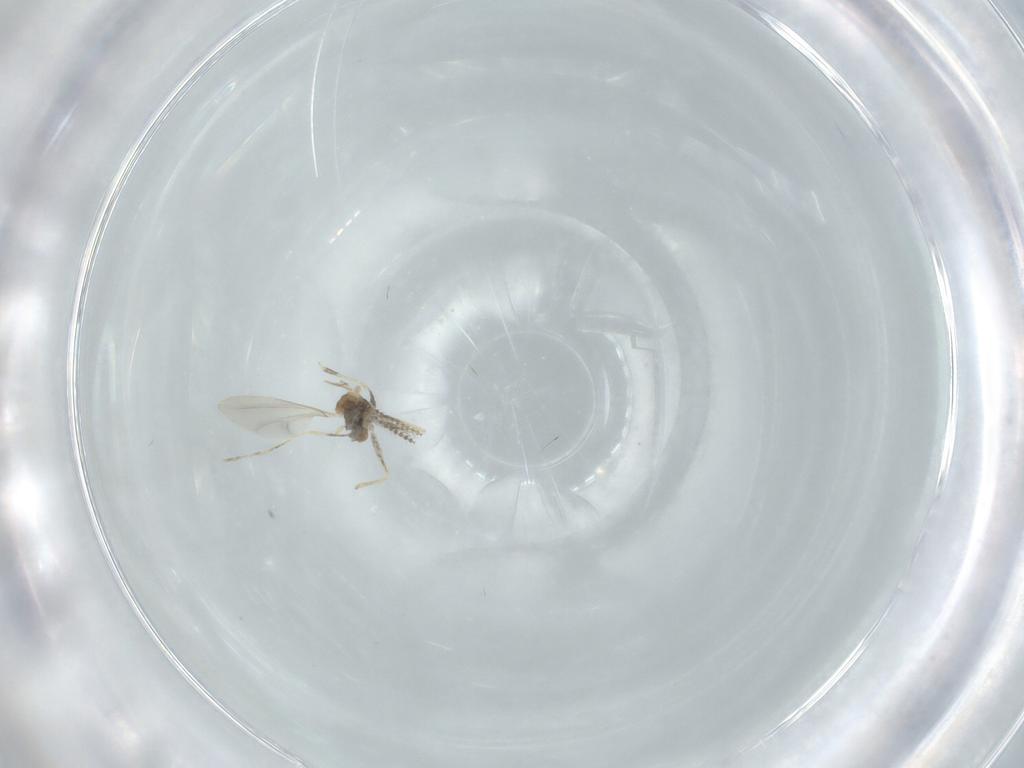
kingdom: Animalia
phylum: Arthropoda
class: Insecta
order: Diptera
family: Cecidomyiidae
